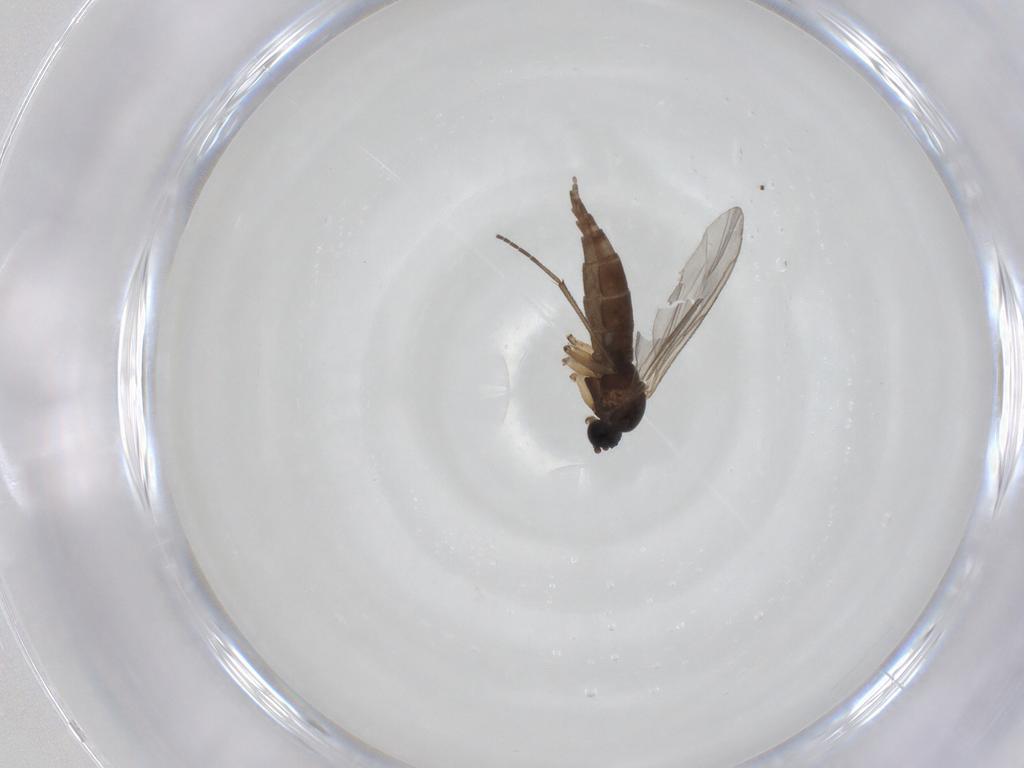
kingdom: Animalia
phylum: Arthropoda
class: Insecta
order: Diptera
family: Sciaridae
